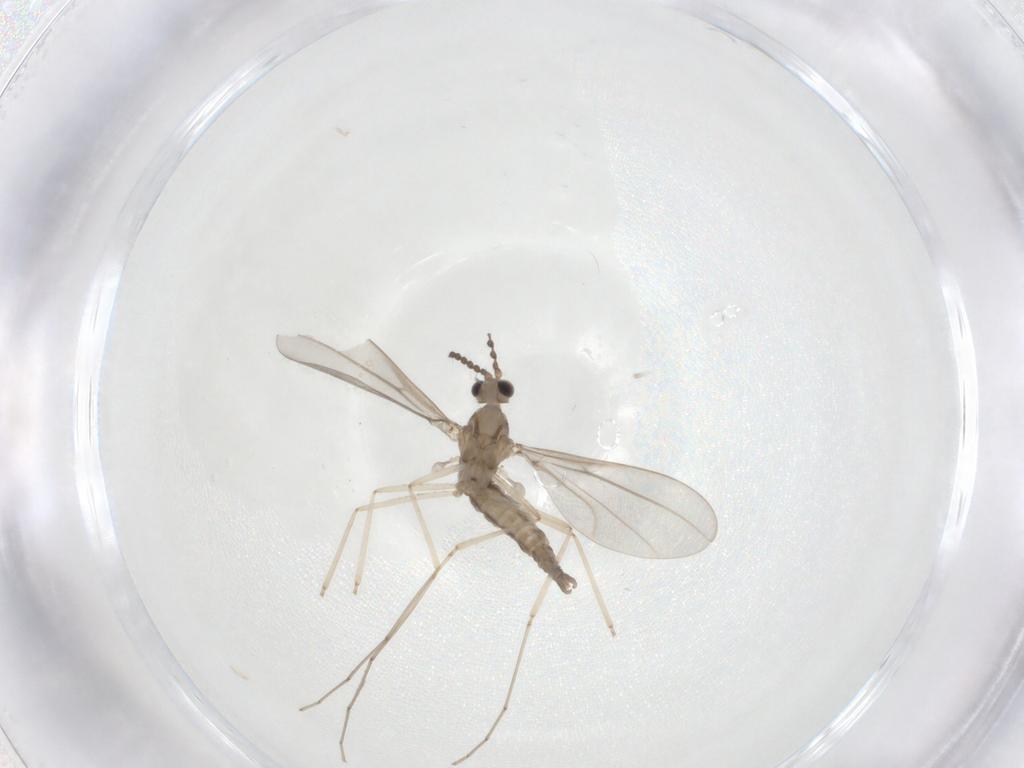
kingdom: Animalia
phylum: Arthropoda
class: Insecta
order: Diptera
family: Cecidomyiidae
